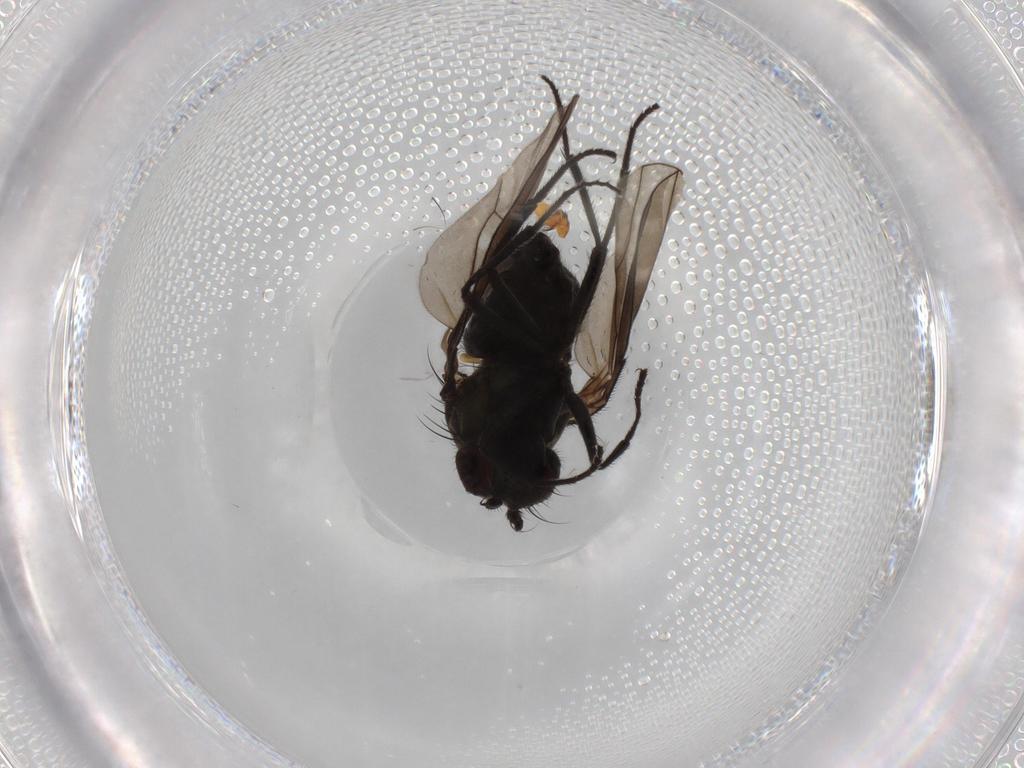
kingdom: Animalia
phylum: Arthropoda
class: Insecta
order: Diptera
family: Ephydridae
